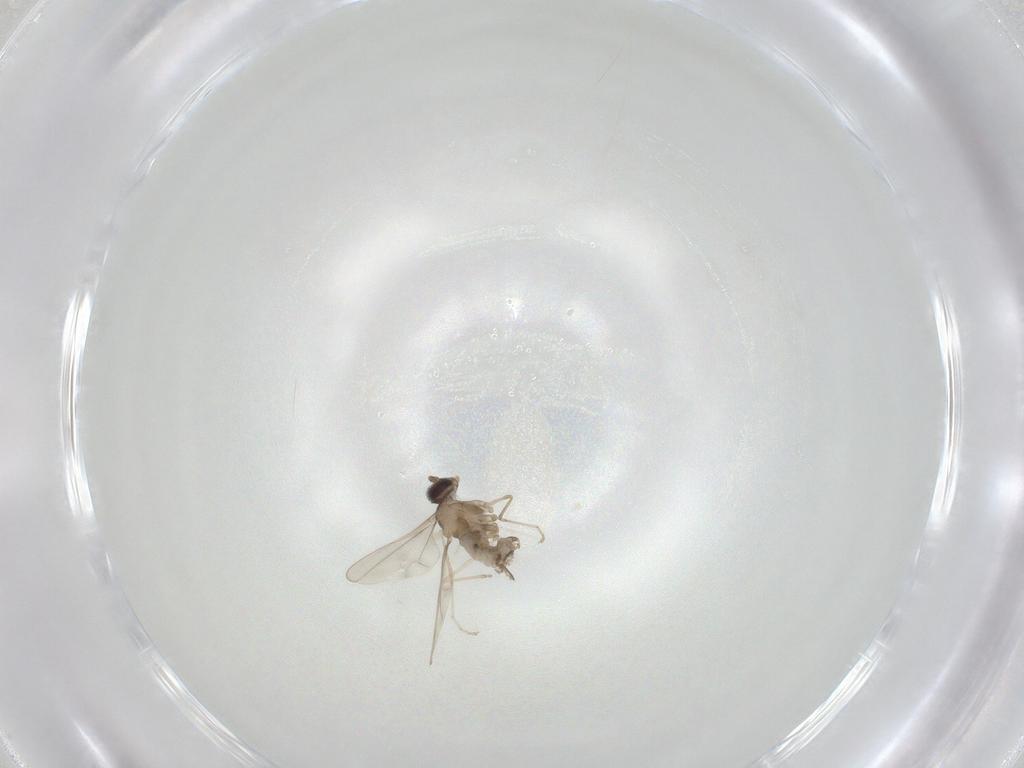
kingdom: Animalia
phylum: Arthropoda
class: Insecta
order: Diptera
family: Cecidomyiidae
